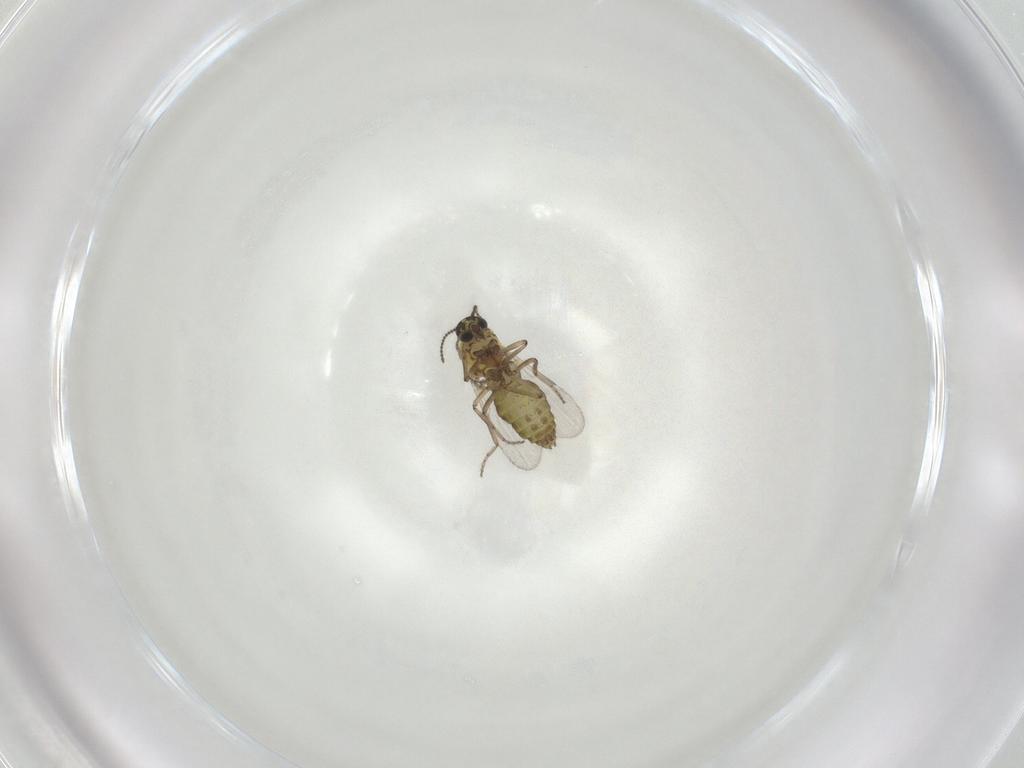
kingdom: Animalia
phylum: Arthropoda
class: Insecta
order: Diptera
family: Ceratopogonidae
